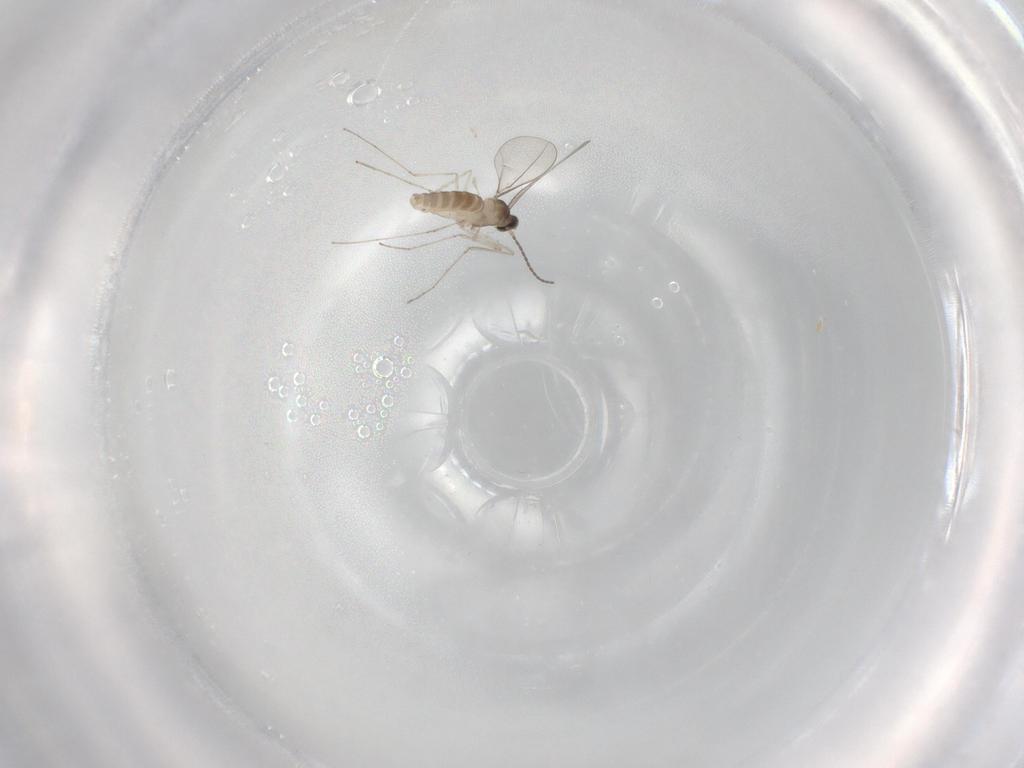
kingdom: Animalia
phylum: Arthropoda
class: Insecta
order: Diptera
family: Cecidomyiidae
